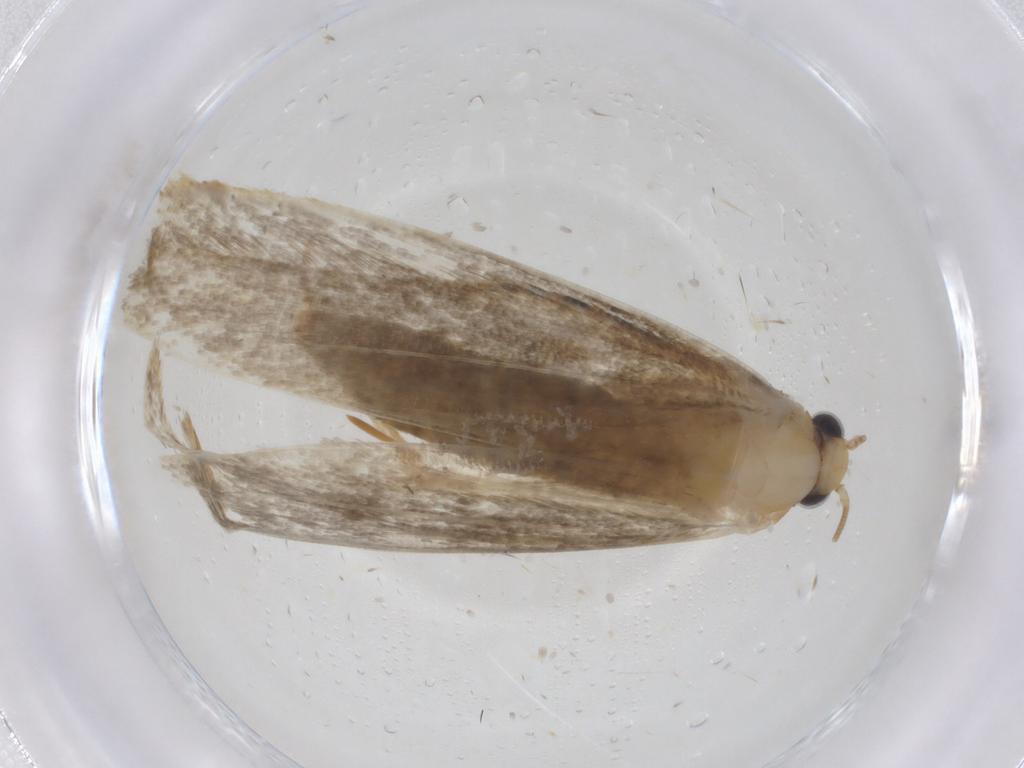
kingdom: Animalia
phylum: Arthropoda
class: Insecta
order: Lepidoptera
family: Tineidae
